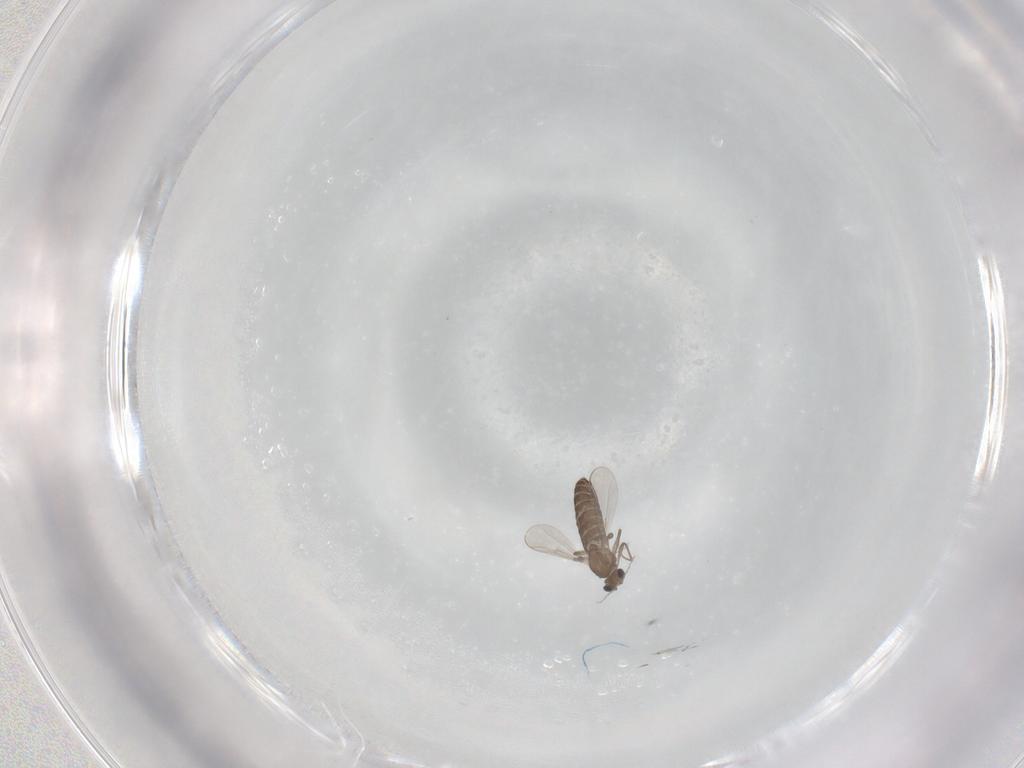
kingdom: Animalia
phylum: Arthropoda
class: Insecta
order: Diptera
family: Chironomidae
